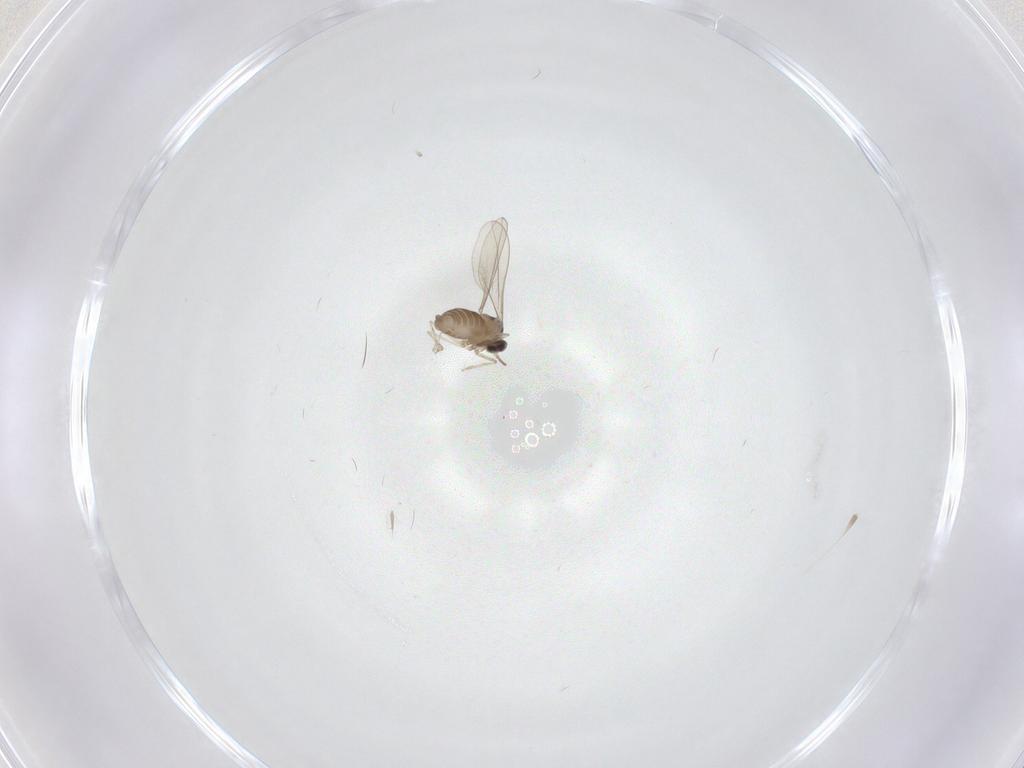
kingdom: Animalia
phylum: Arthropoda
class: Insecta
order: Diptera
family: Cecidomyiidae
